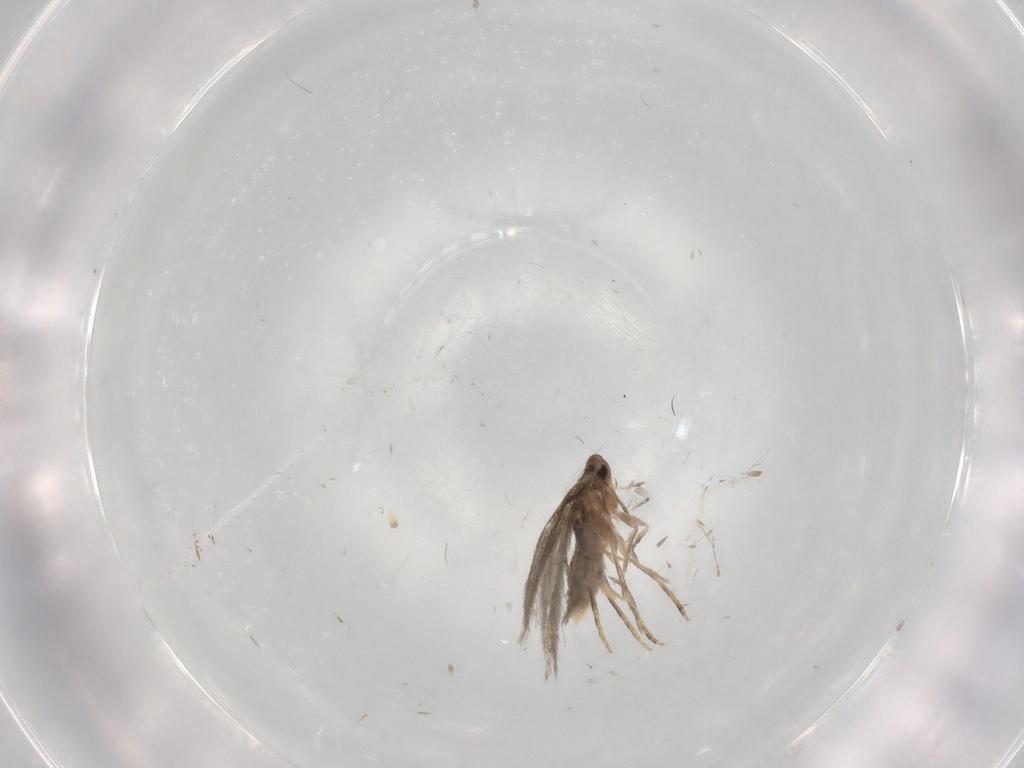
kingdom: Animalia
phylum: Arthropoda
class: Insecta
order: Lepidoptera
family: Elachistidae
